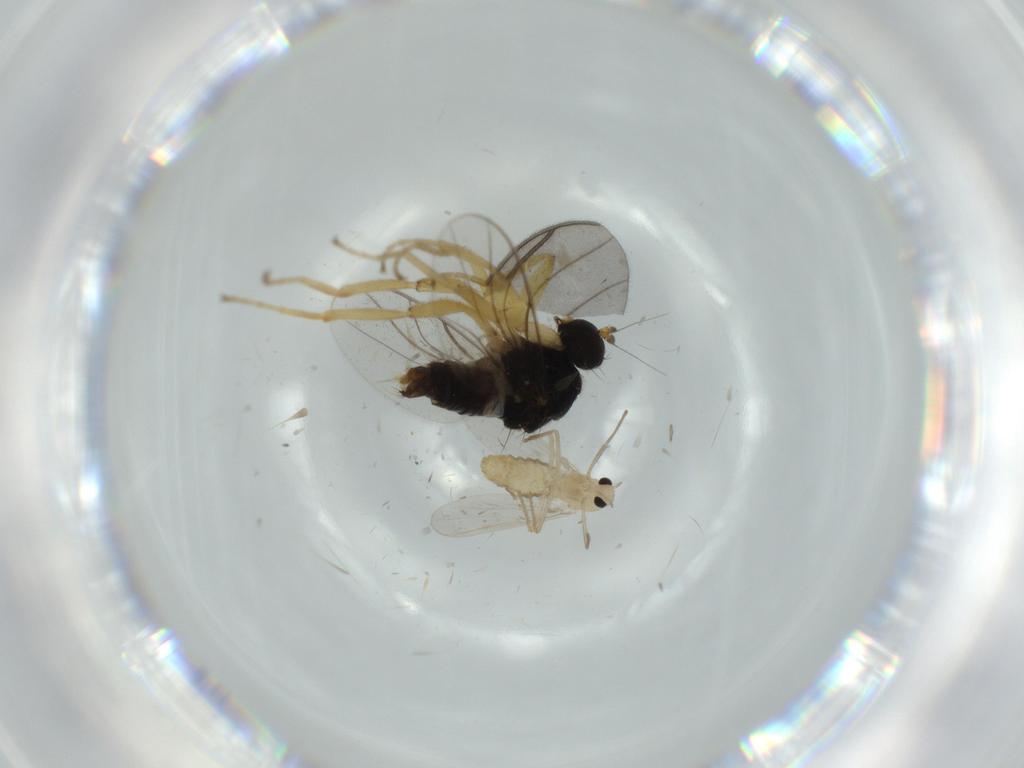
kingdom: Animalia
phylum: Arthropoda
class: Insecta
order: Diptera
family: Hybotidae
